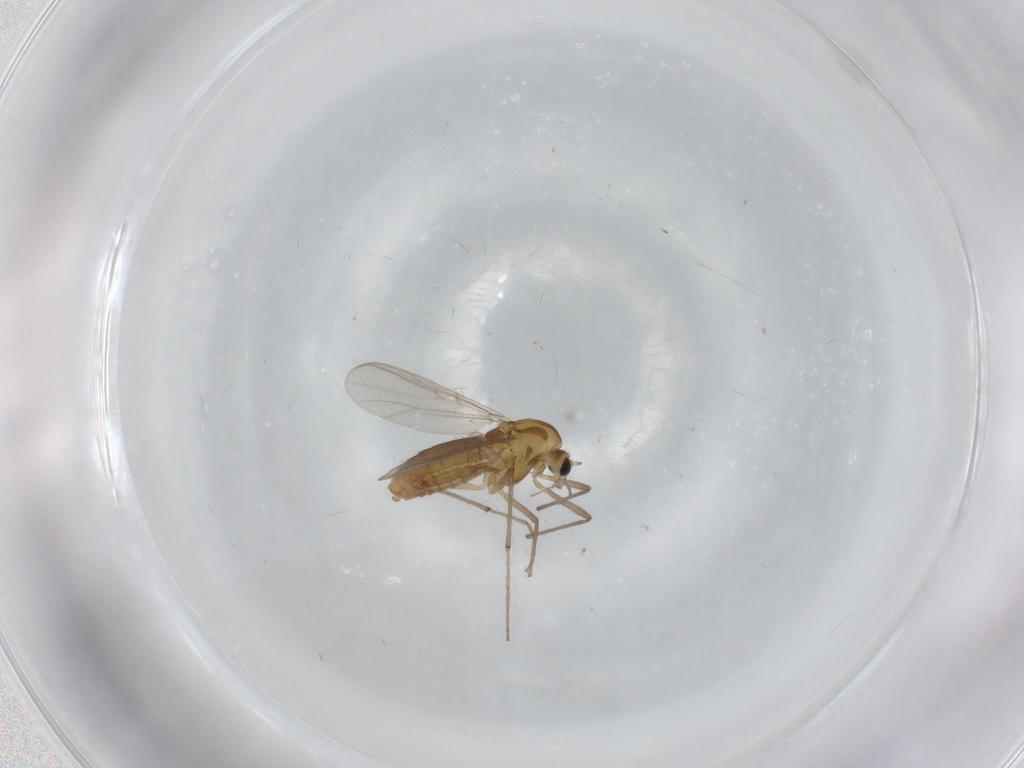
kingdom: Animalia
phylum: Arthropoda
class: Insecta
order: Diptera
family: Chironomidae
